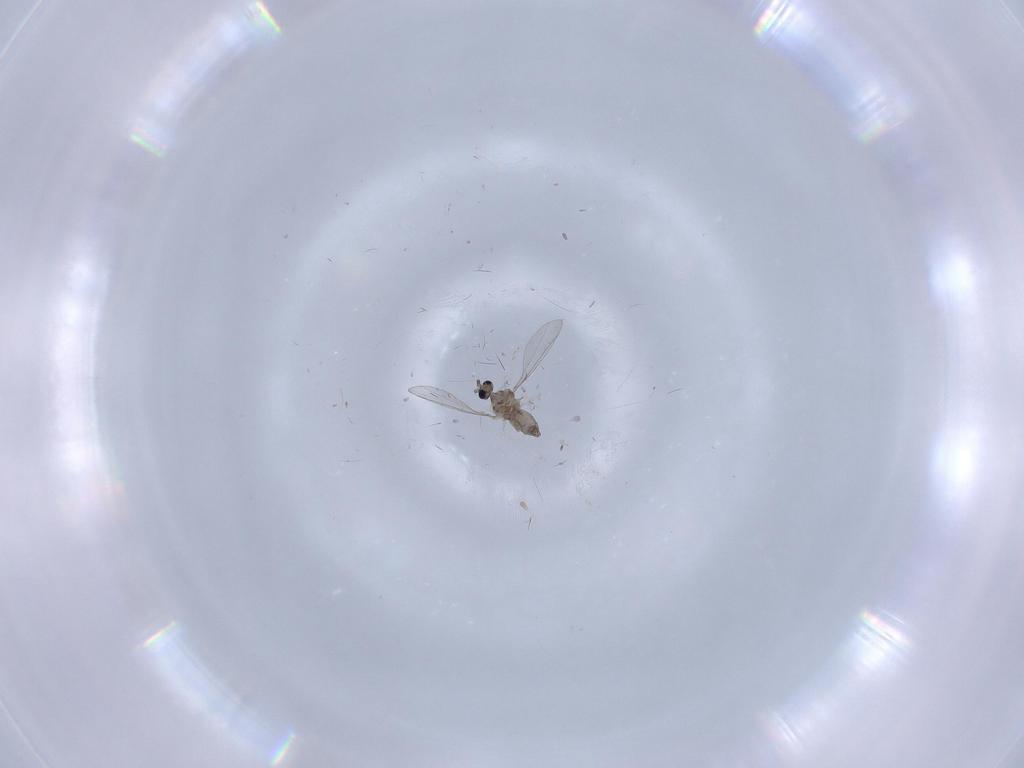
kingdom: Animalia
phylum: Arthropoda
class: Insecta
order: Diptera
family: Cecidomyiidae
